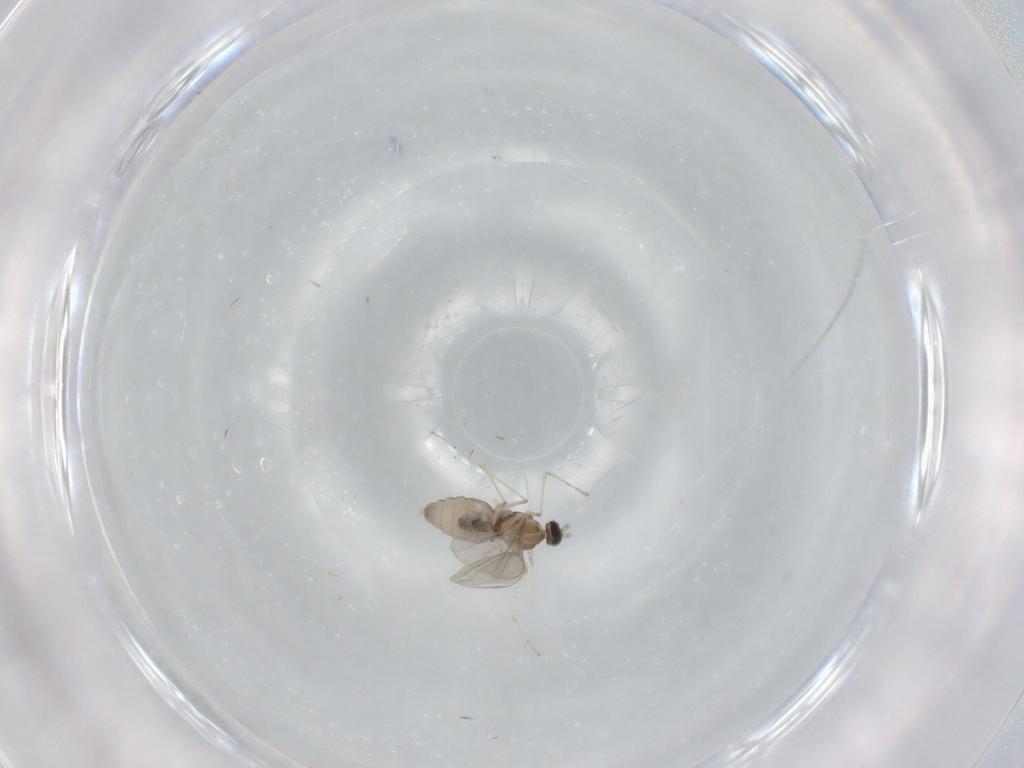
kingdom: Animalia
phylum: Arthropoda
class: Insecta
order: Diptera
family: Cecidomyiidae
